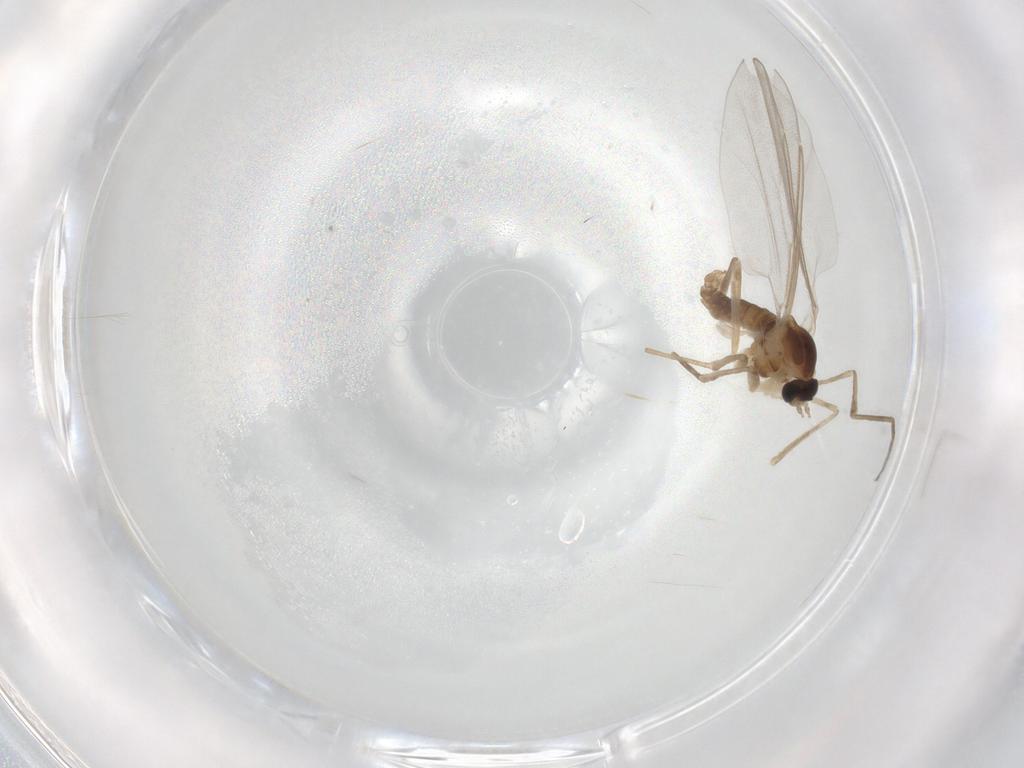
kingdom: Animalia
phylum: Arthropoda
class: Insecta
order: Diptera
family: Cecidomyiidae
